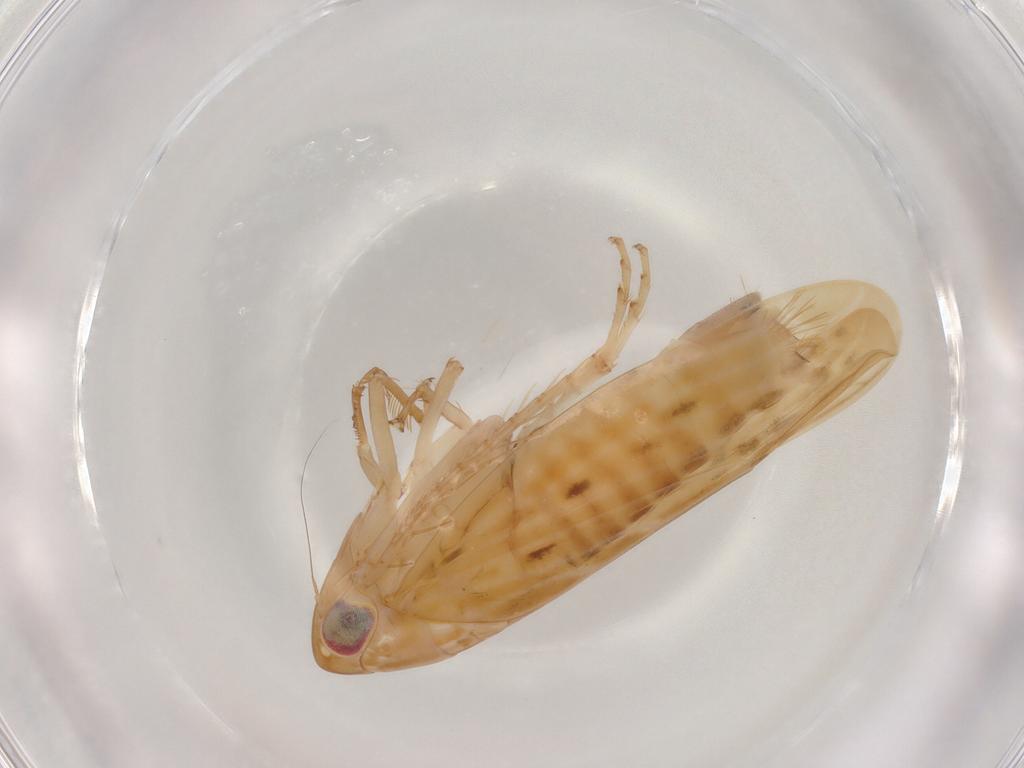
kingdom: Animalia
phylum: Arthropoda
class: Insecta
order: Hemiptera
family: Cicadellidae
